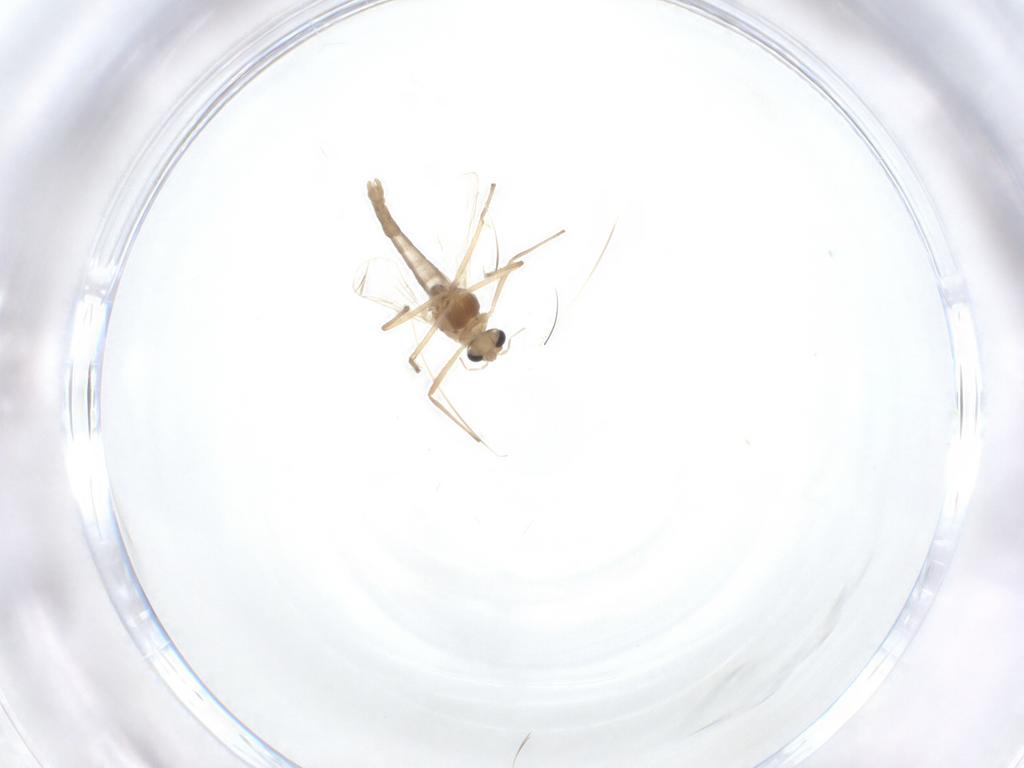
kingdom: Animalia
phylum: Arthropoda
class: Insecta
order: Diptera
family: Chironomidae
